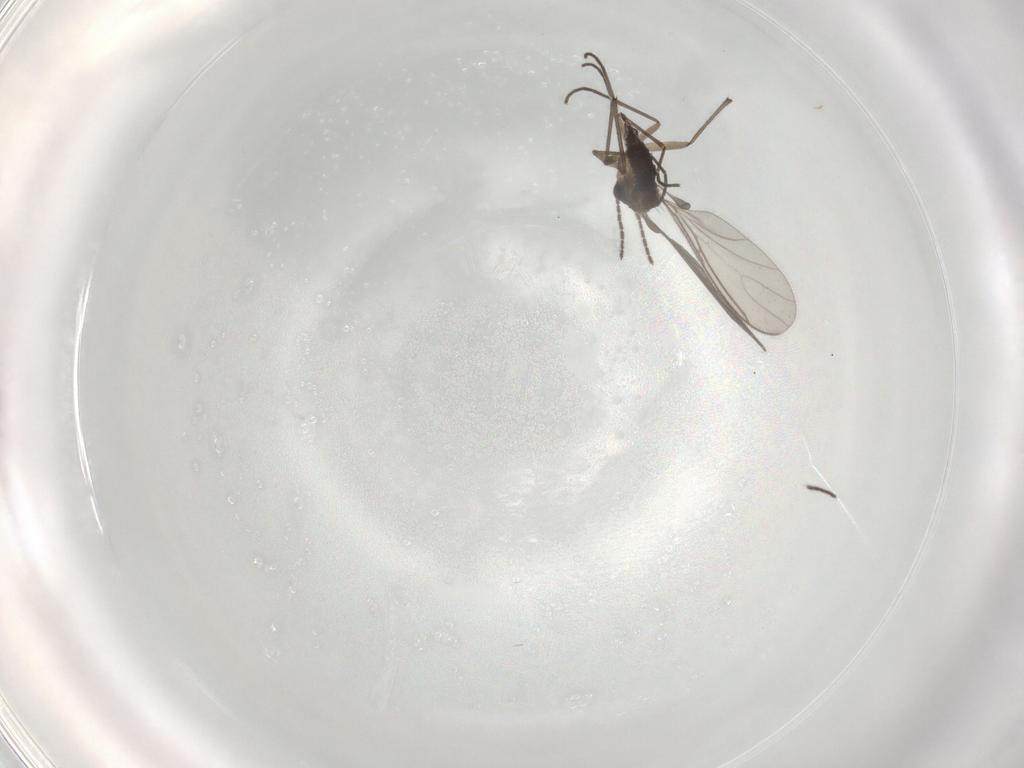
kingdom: Animalia
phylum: Arthropoda
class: Insecta
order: Diptera
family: Sciaridae
